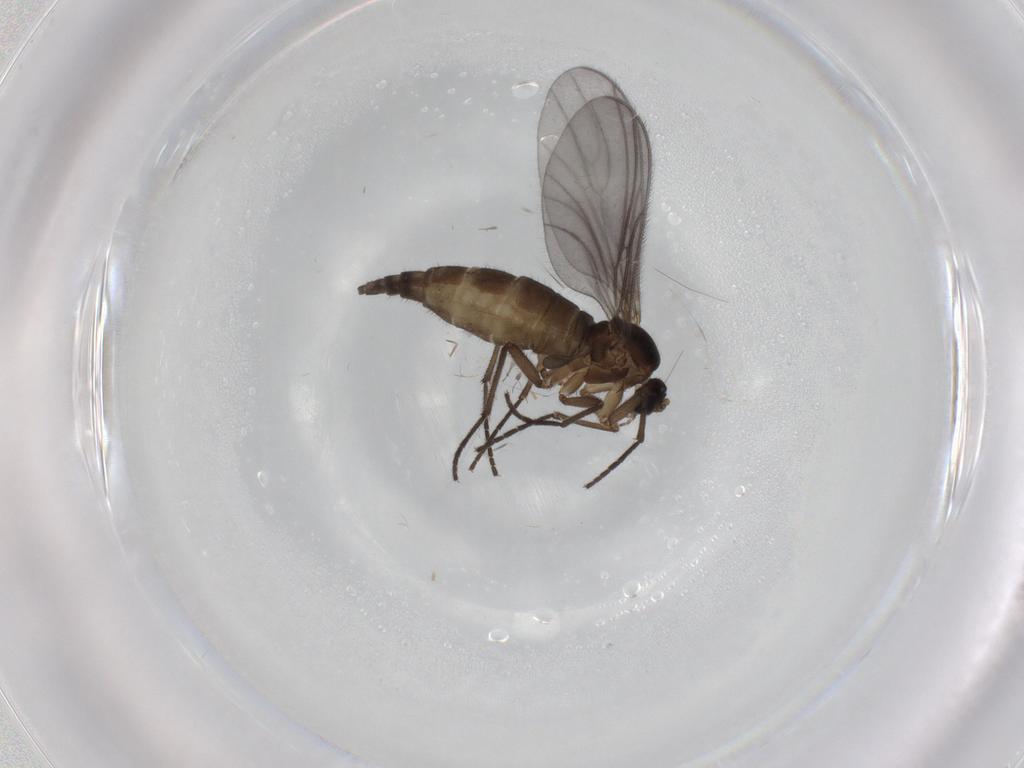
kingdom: Animalia
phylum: Arthropoda
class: Insecta
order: Diptera
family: Sciaridae
